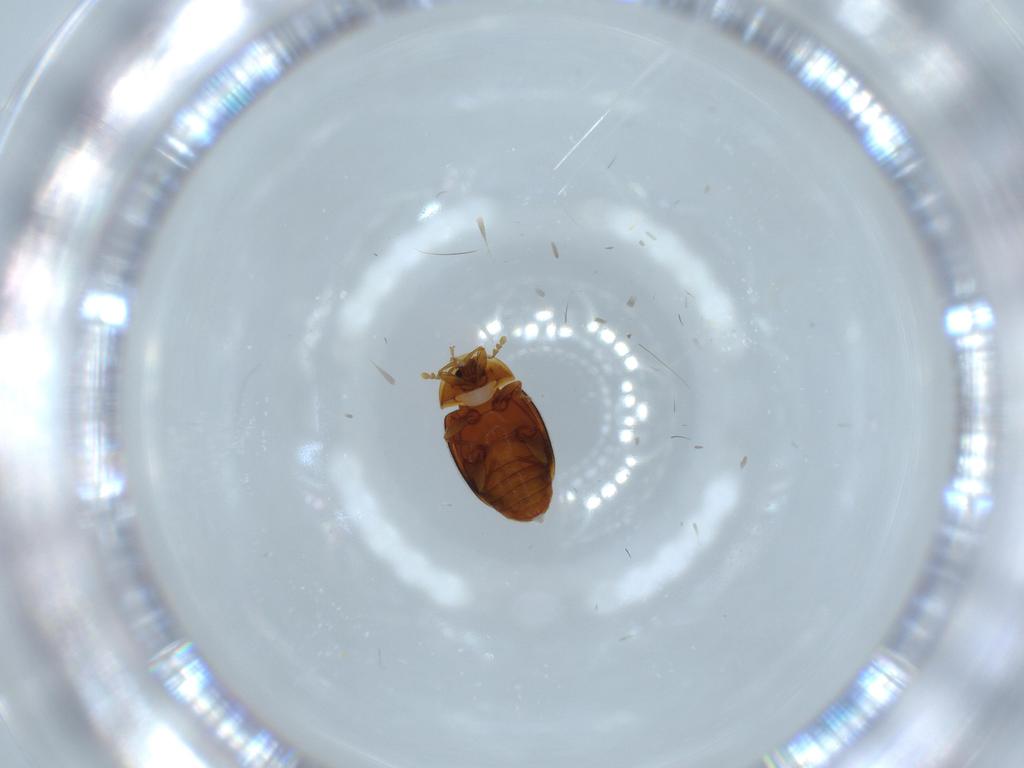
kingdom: Animalia
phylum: Arthropoda
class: Insecta
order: Coleoptera
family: Corylophidae
